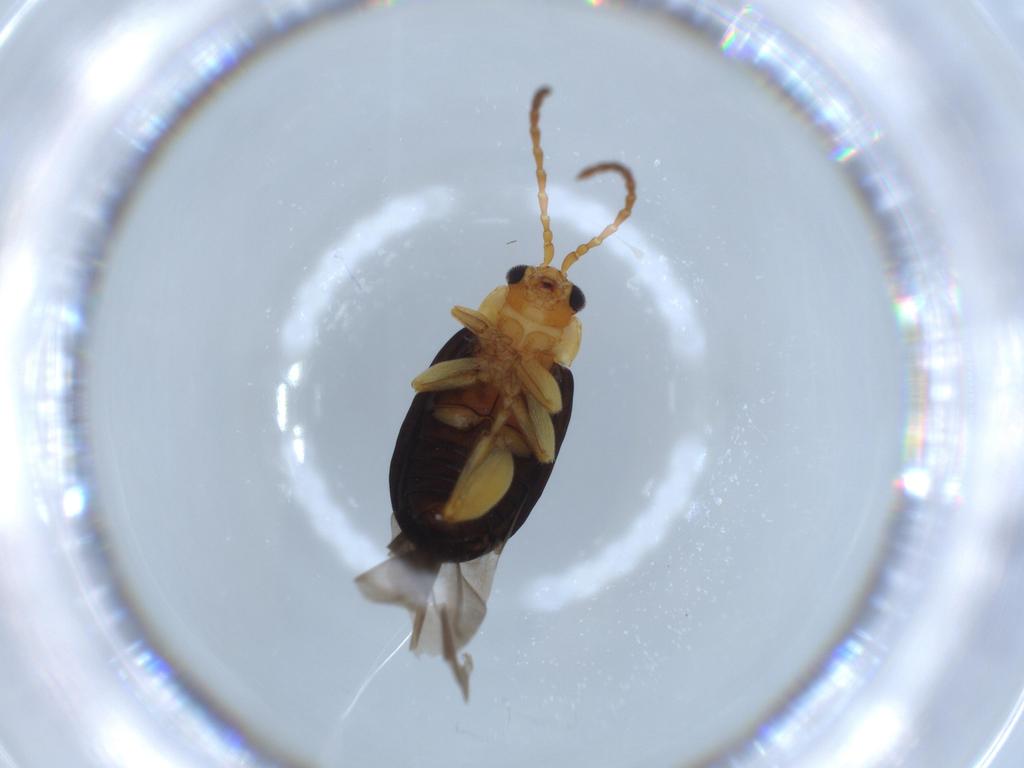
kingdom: Animalia
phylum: Arthropoda
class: Insecta
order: Coleoptera
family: Chrysomelidae
